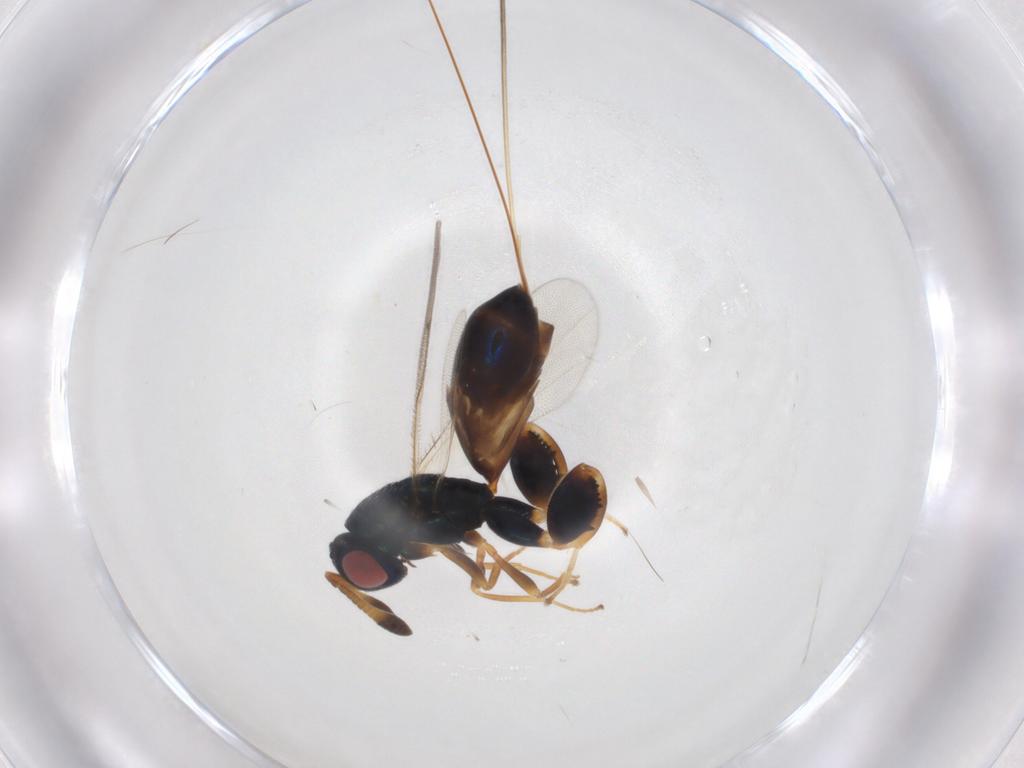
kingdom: Animalia
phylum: Arthropoda
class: Insecta
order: Hymenoptera
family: Torymidae
